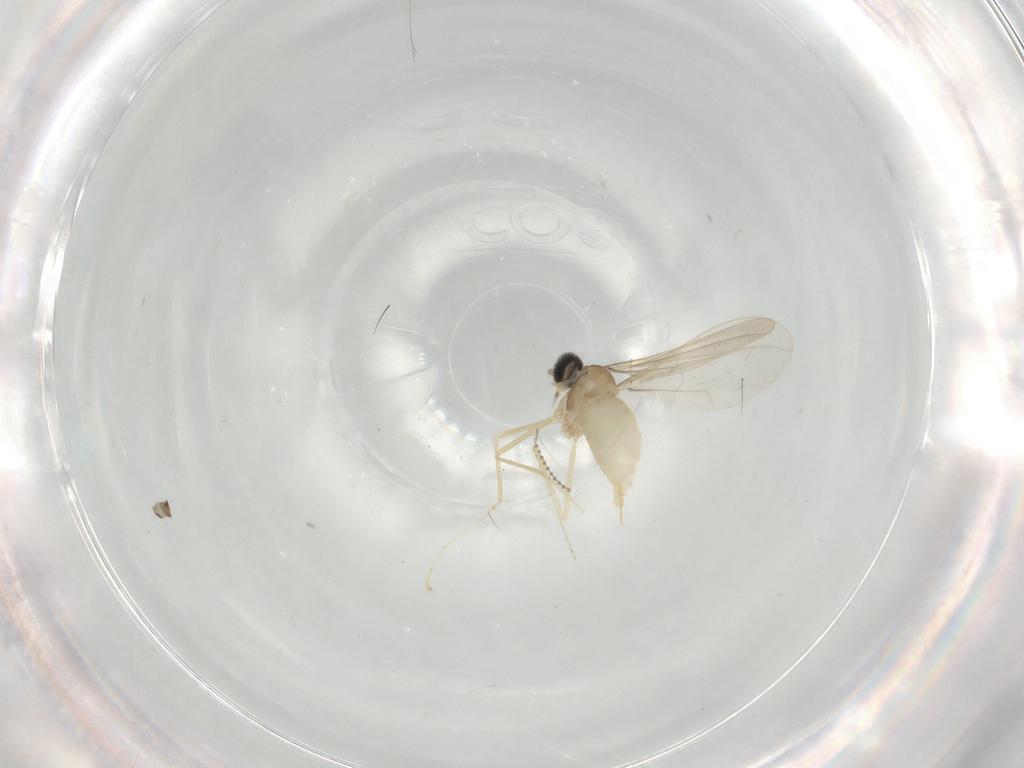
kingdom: Animalia
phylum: Arthropoda
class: Insecta
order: Diptera
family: Cecidomyiidae
